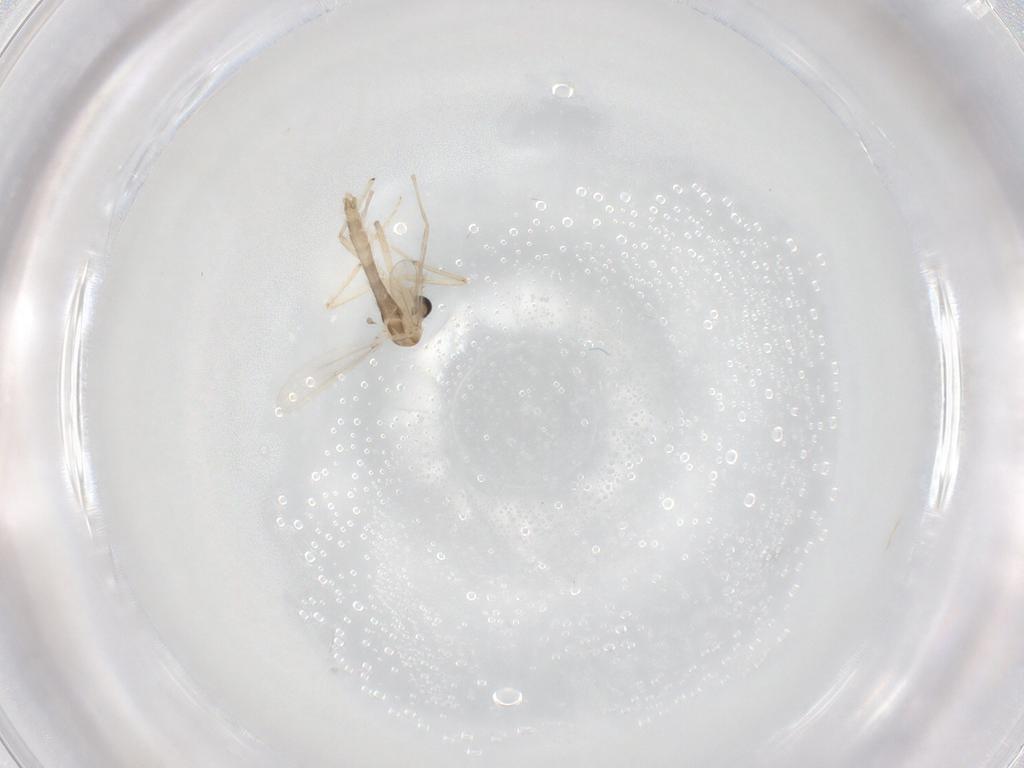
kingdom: Animalia
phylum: Arthropoda
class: Insecta
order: Diptera
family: Chironomidae
